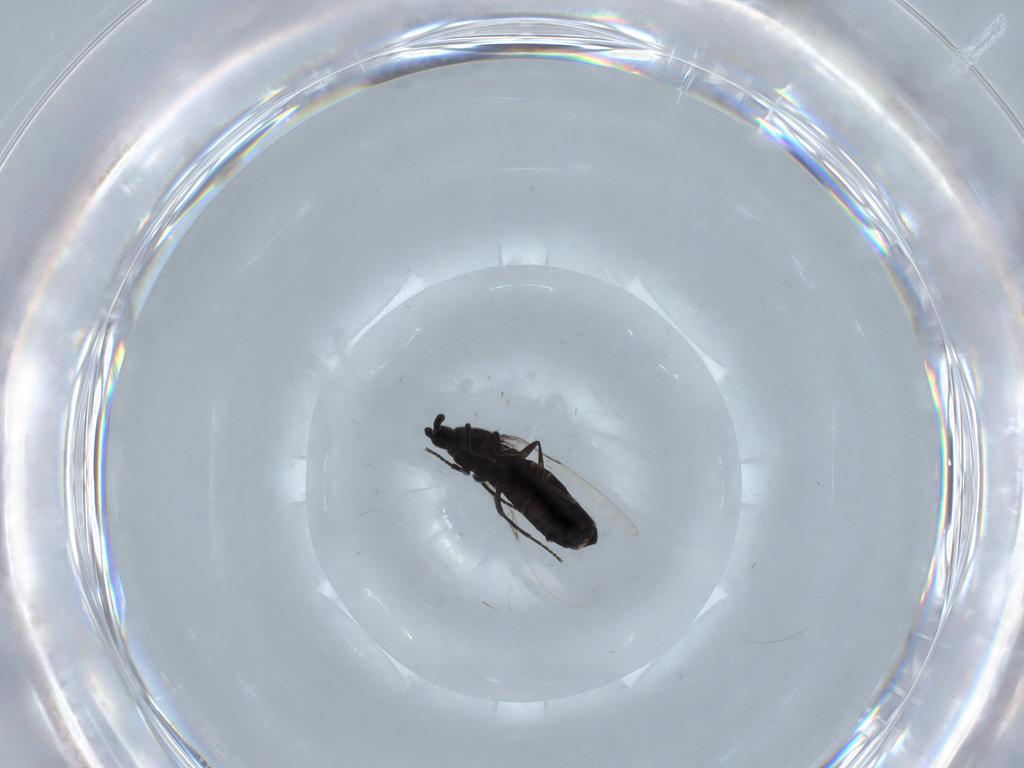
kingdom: Animalia
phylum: Arthropoda
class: Insecta
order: Diptera
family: Scatopsidae
